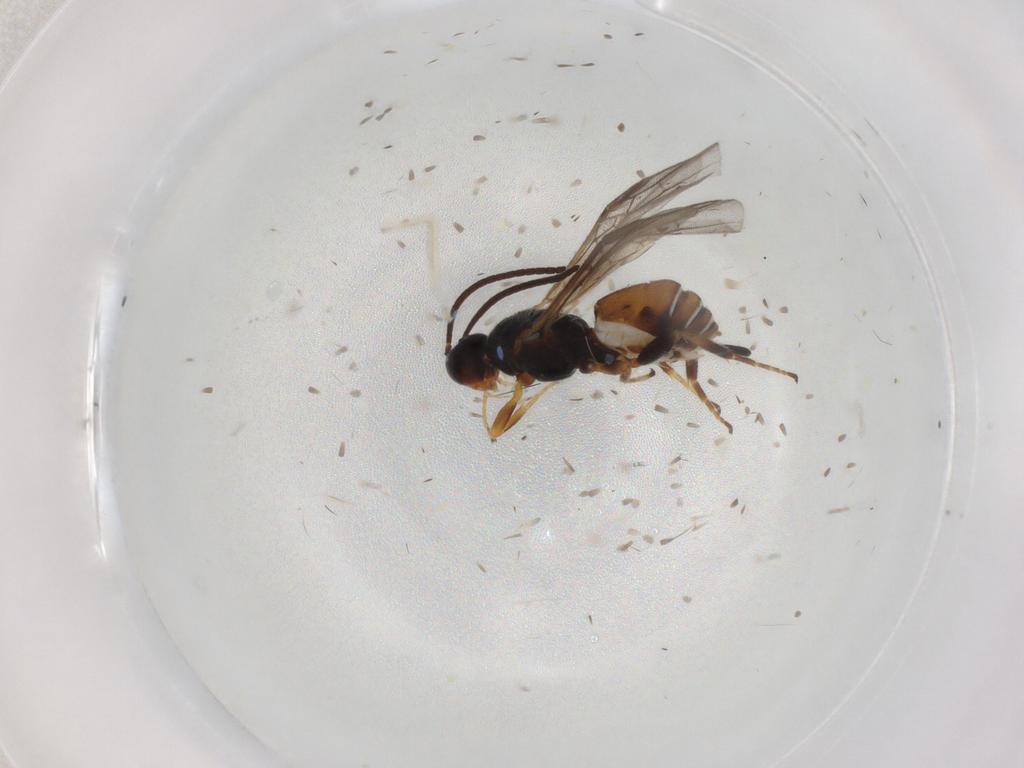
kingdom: Animalia
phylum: Arthropoda
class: Insecta
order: Hymenoptera
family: Braconidae
